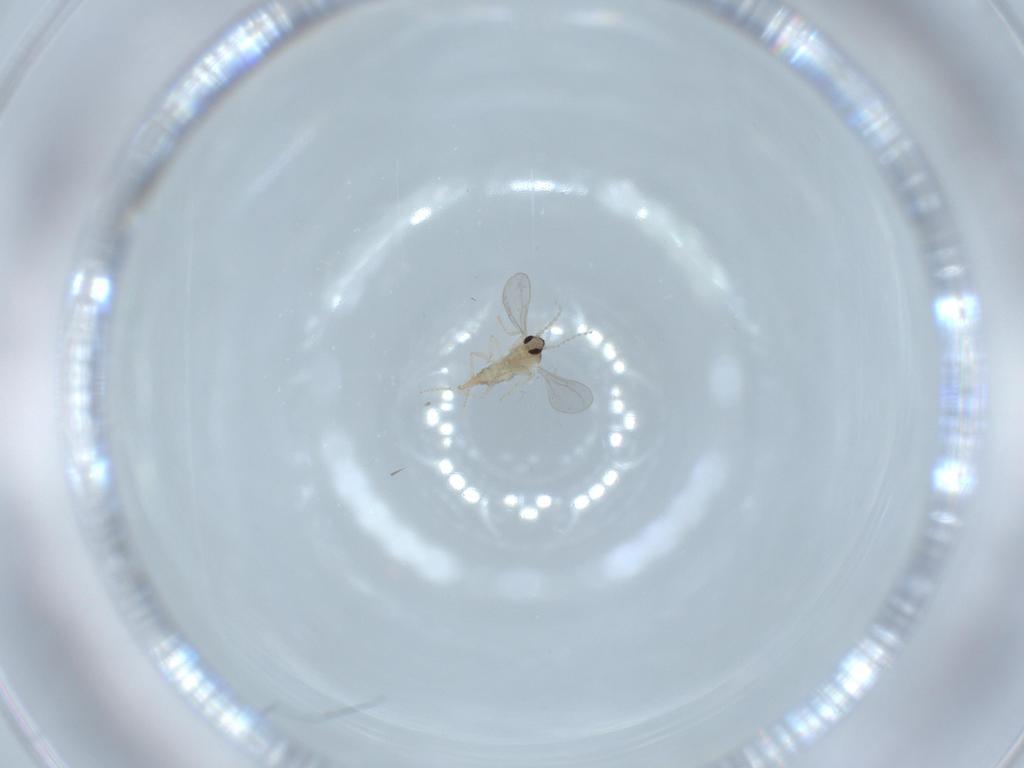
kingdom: Animalia
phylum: Arthropoda
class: Insecta
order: Diptera
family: Sciaridae
